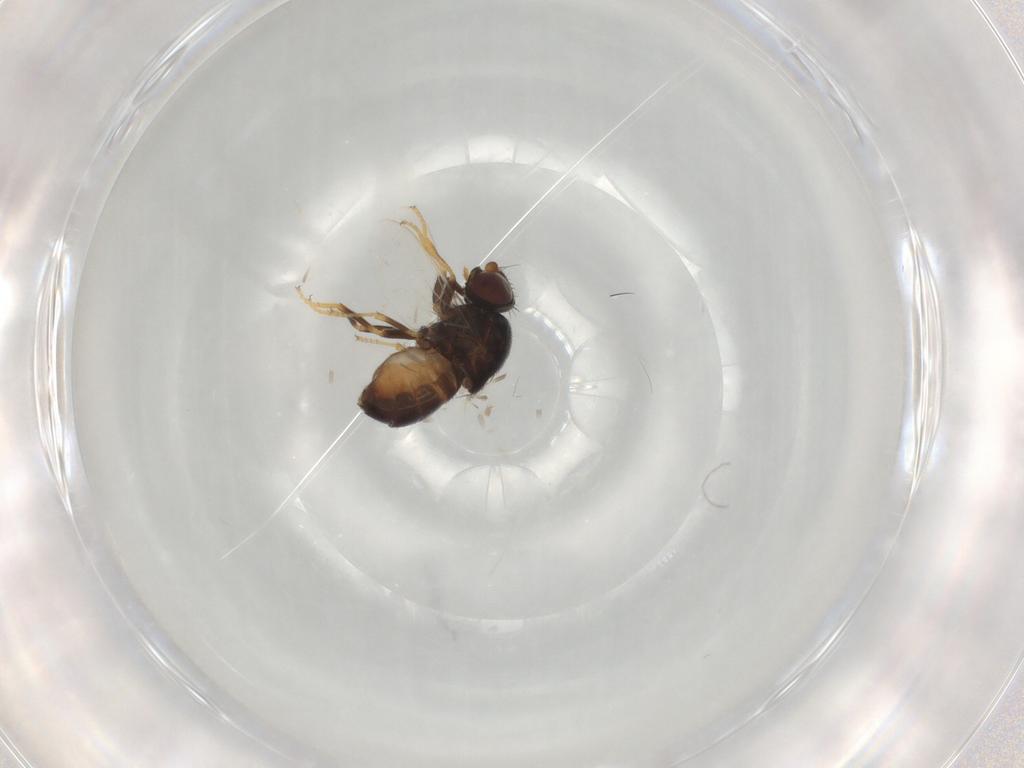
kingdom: Animalia
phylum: Arthropoda
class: Insecta
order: Diptera
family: Chloropidae
